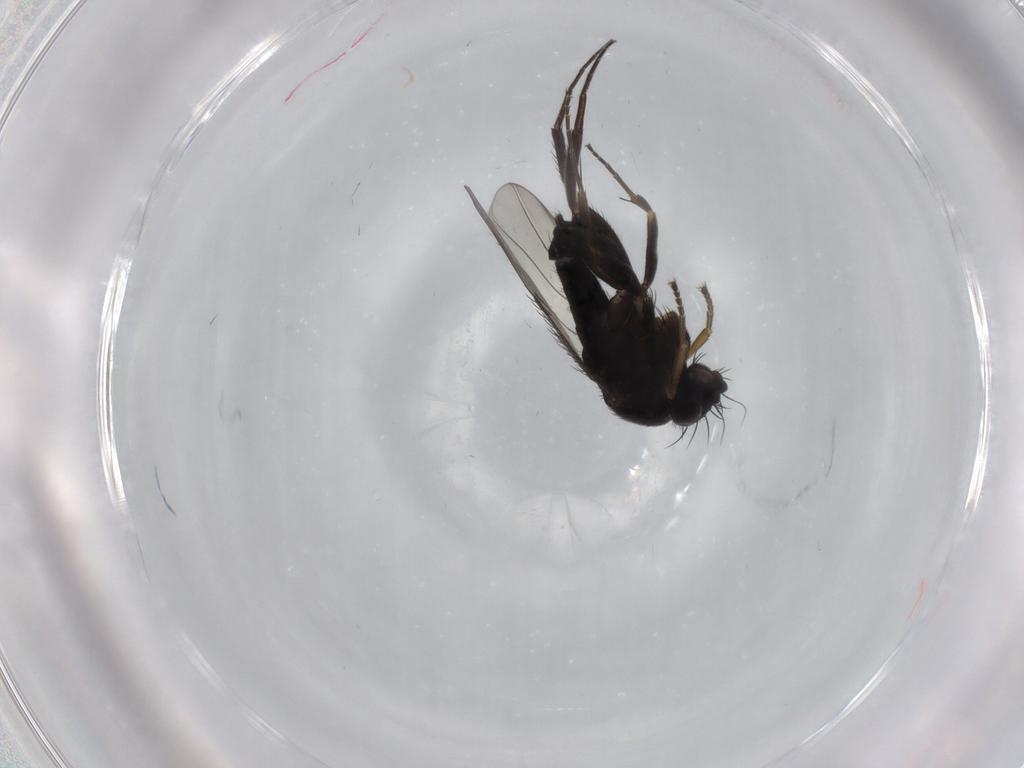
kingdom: Animalia
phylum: Arthropoda
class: Insecta
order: Diptera
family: Phoridae
